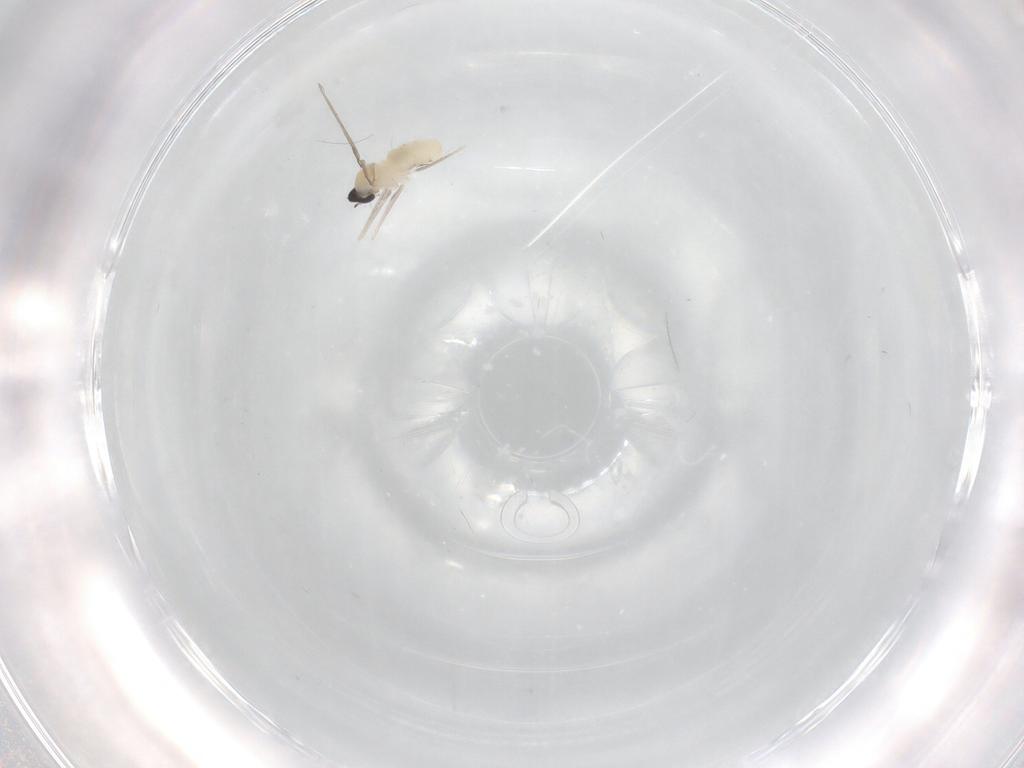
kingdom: Animalia
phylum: Arthropoda
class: Insecta
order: Diptera
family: Cecidomyiidae
